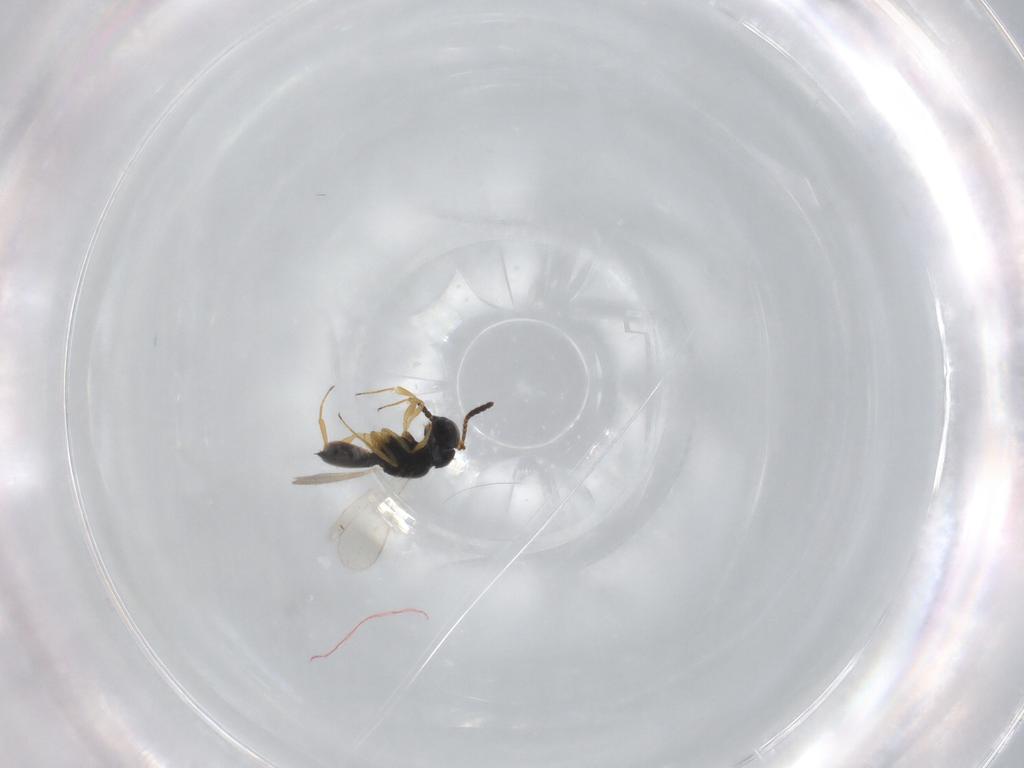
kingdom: Animalia
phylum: Arthropoda
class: Insecta
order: Hymenoptera
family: Scelionidae
